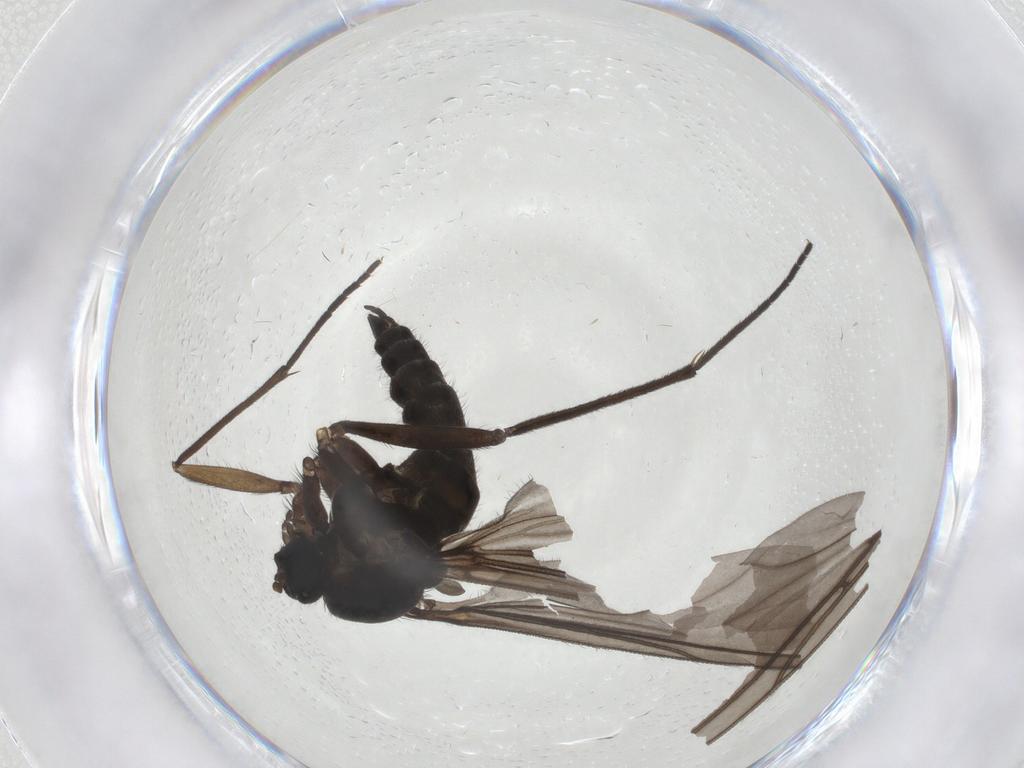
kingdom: Animalia
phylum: Arthropoda
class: Insecta
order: Diptera
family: Sciaridae
